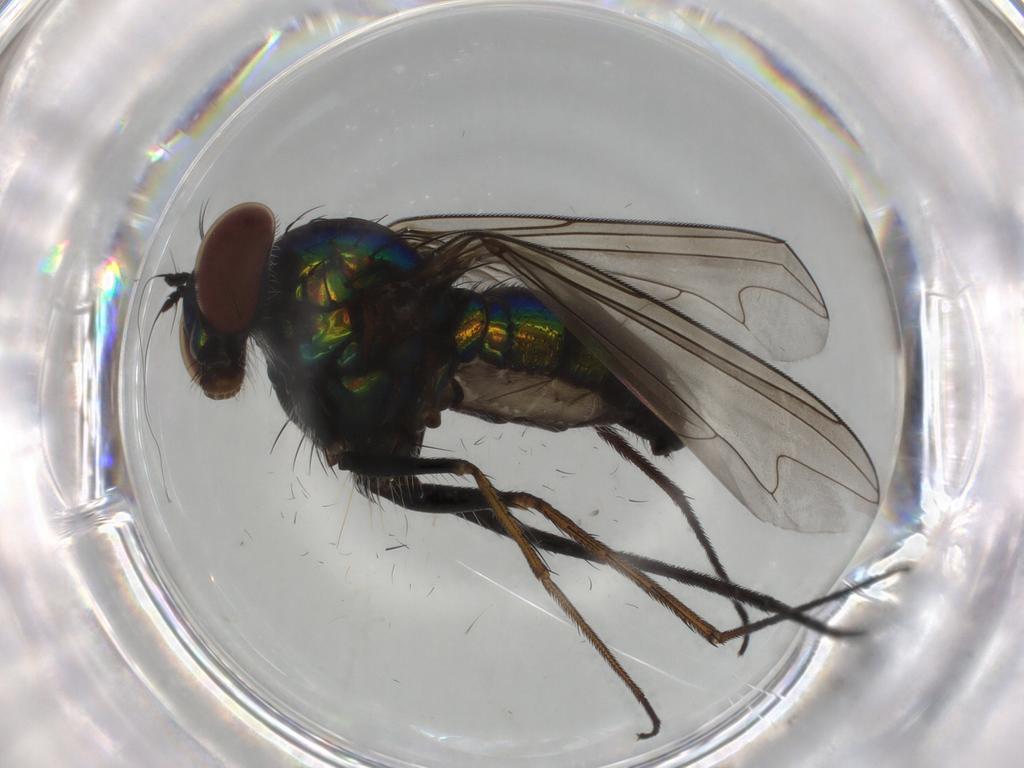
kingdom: Animalia
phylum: Arthropoda
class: Insecta
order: Diptera
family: Dolichopodidae
